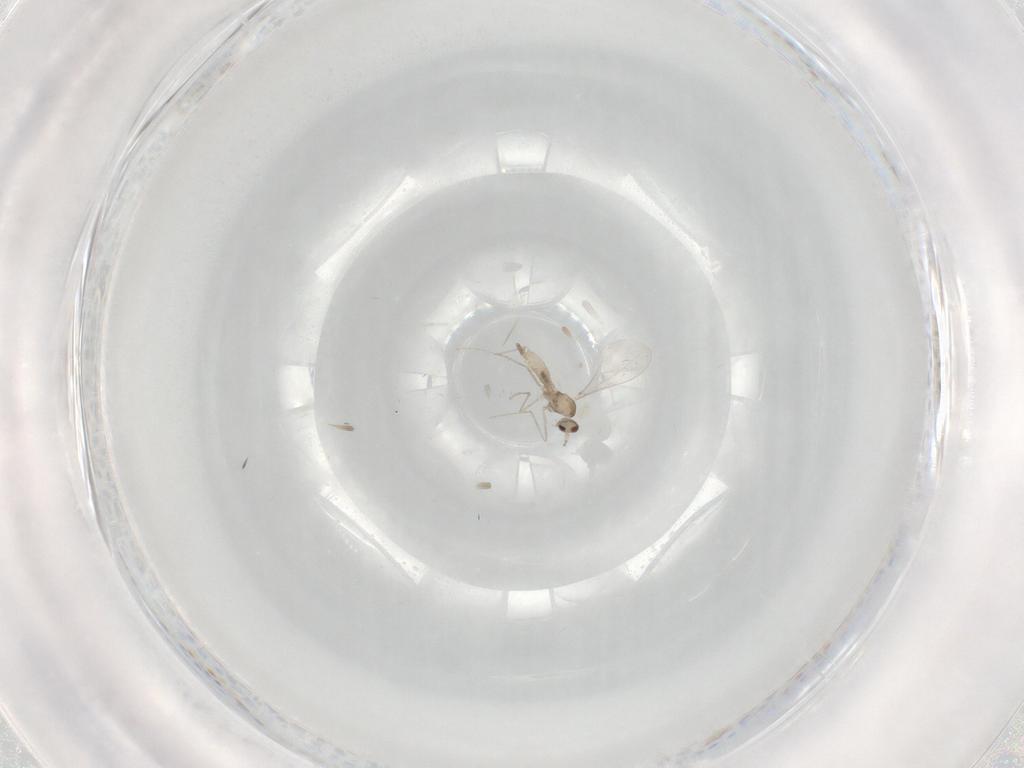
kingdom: Animalia
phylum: Arthropoda
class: Insecta
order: Diptera
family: Cecidomyiidae
